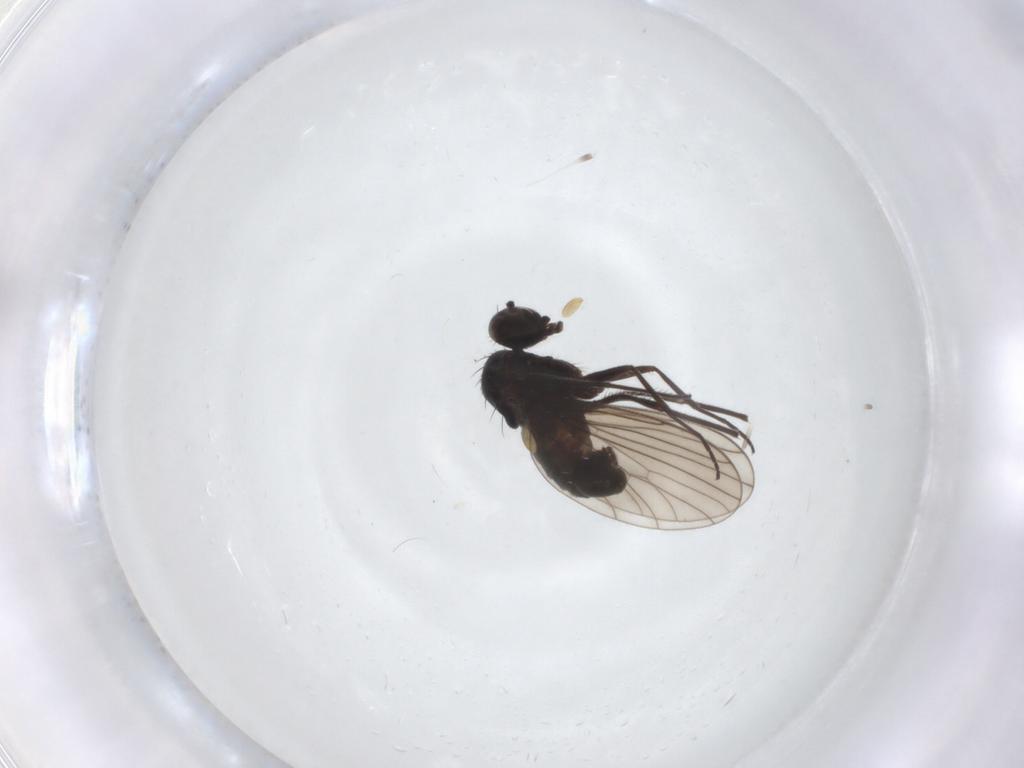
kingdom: Animalia
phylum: Arthropoda
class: Insecta
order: Diptera
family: Dolichopodidae
